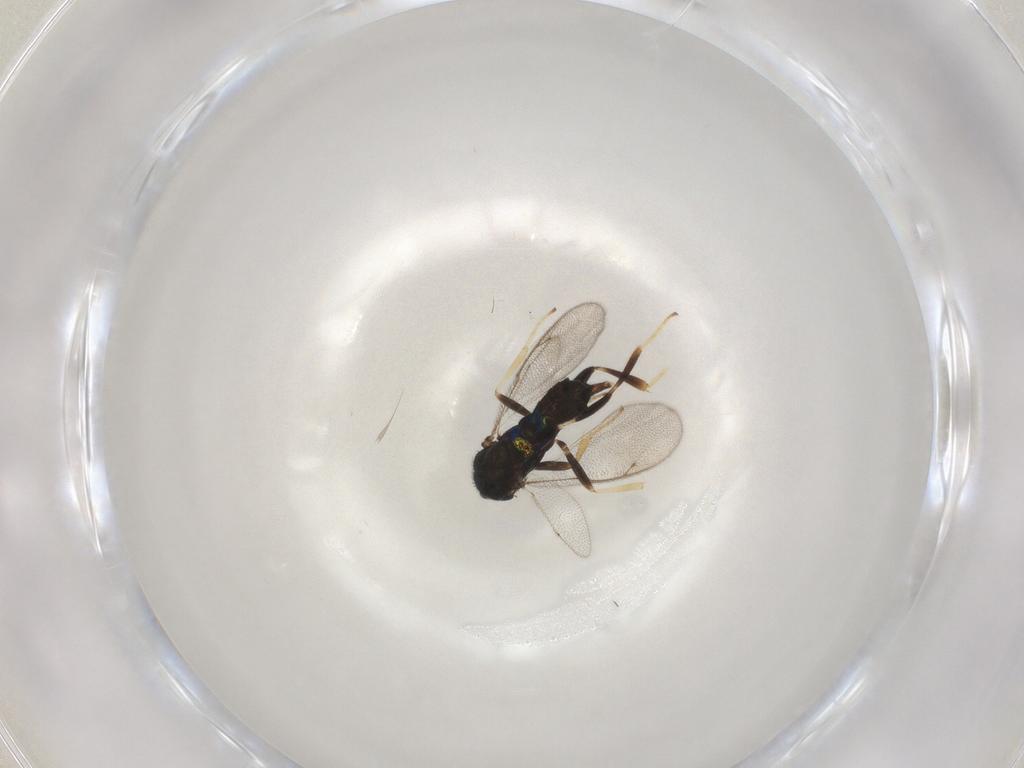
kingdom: Animalia
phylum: Arthropoda
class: Insecta
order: Hymenoptera
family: Eupelmidae
